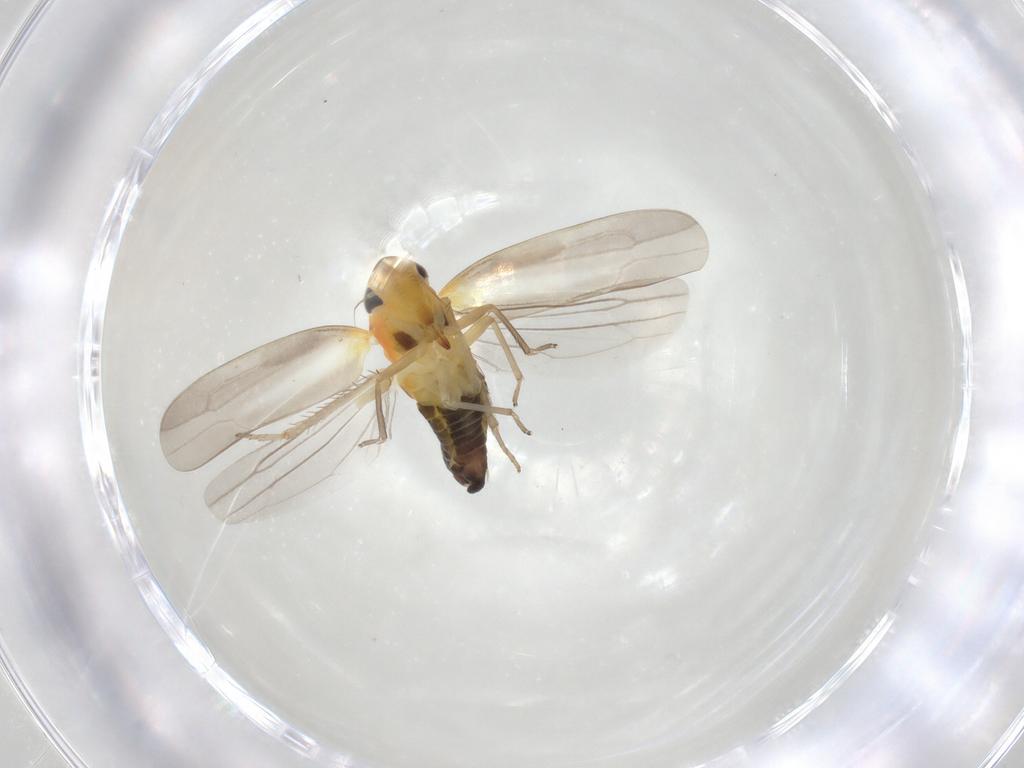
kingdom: Animalia
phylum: Arthropoda
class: Insecta
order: Hemiptera
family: Cicadellidae
